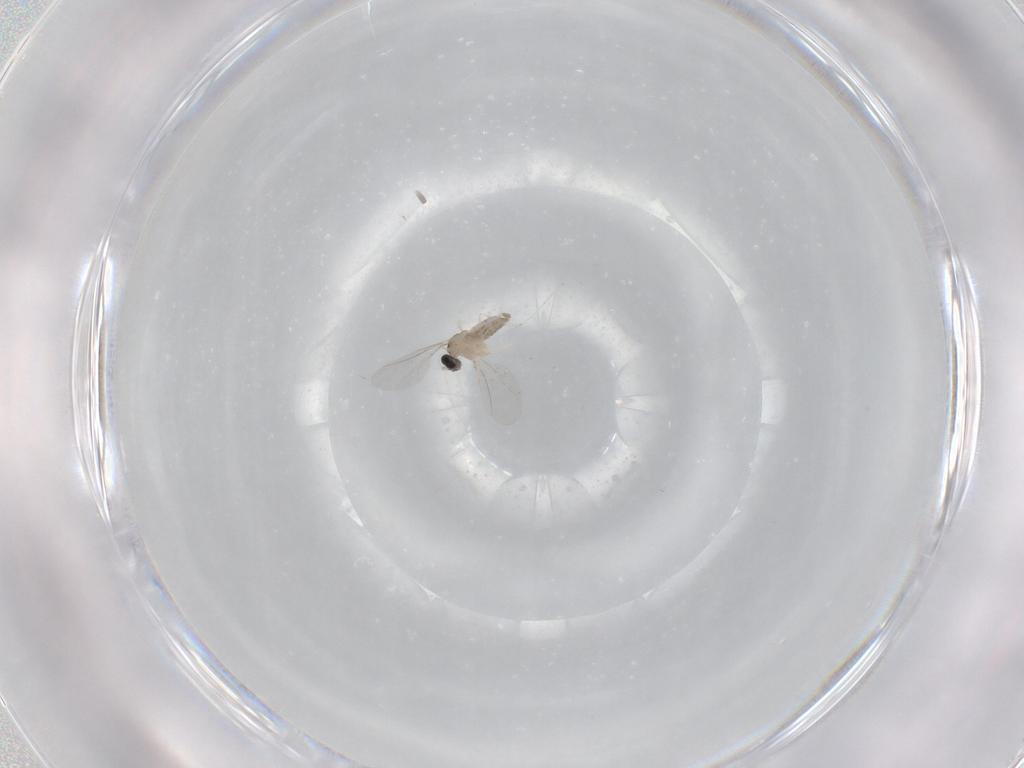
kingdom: Animalia
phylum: Arthropoda
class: Insecta
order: Diptera
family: Cecidomyiidae
